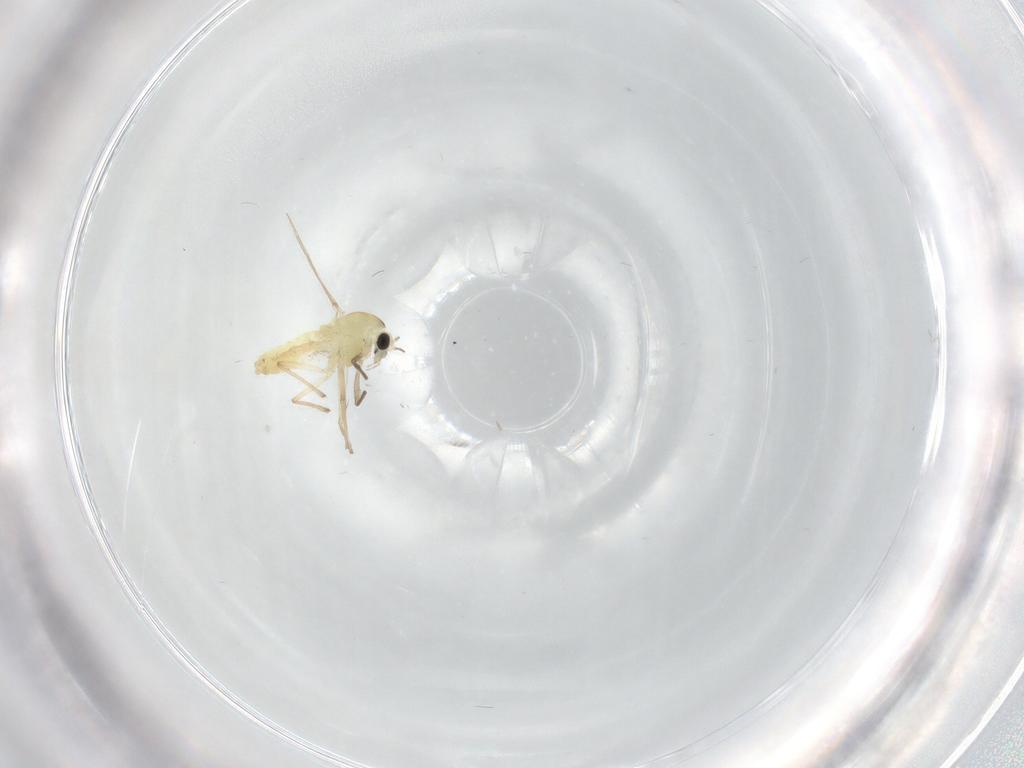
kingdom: Animalia
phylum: Arthropoda
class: Insecta
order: Diptera
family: Chironomidae
